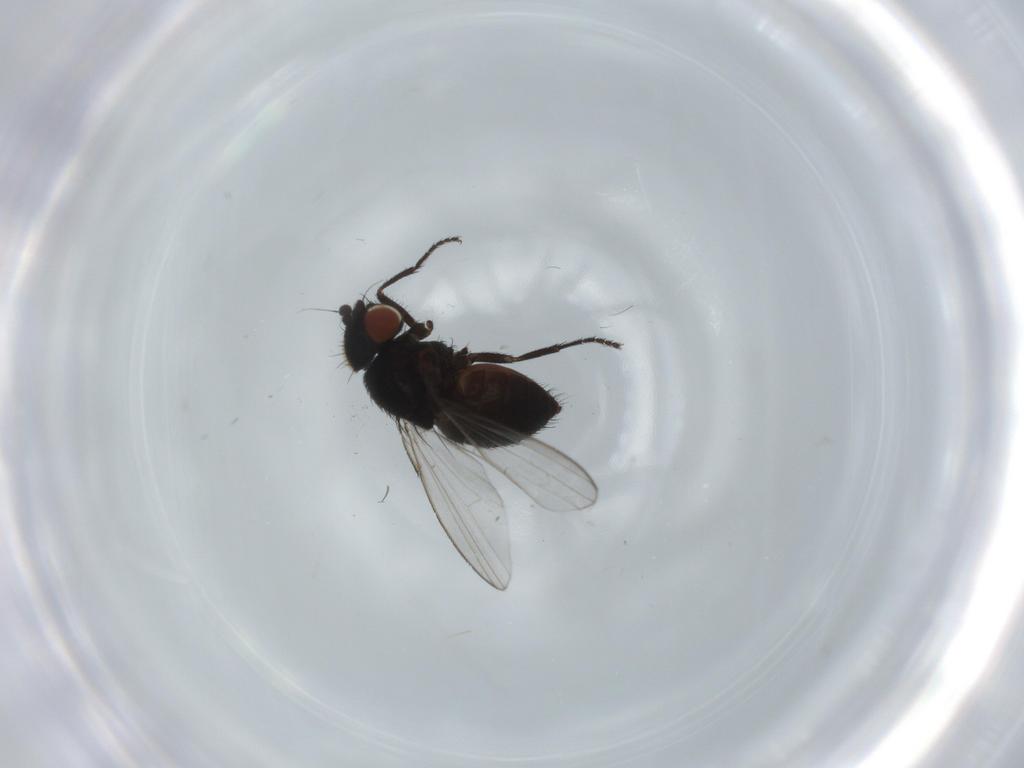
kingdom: Animalia
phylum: Arthropoda
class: Insecta
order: Diptera
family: Milichiidae
